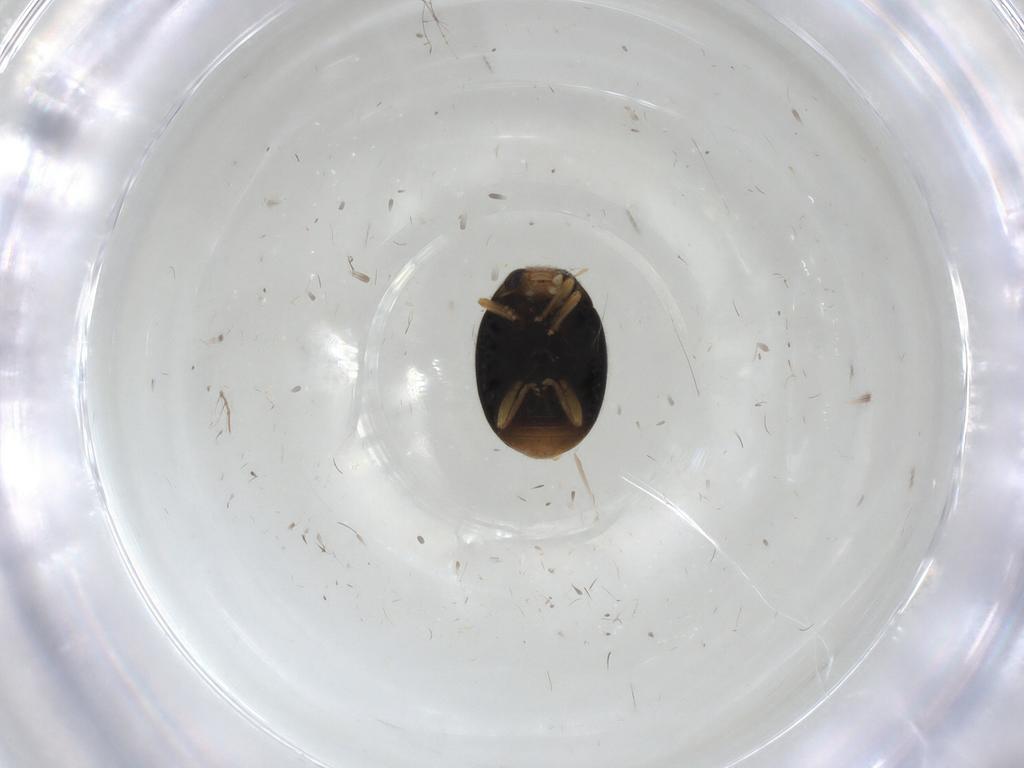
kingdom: Animalia
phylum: Arthropoda
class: Insecta
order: Coleoptera
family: Coccinellidae
